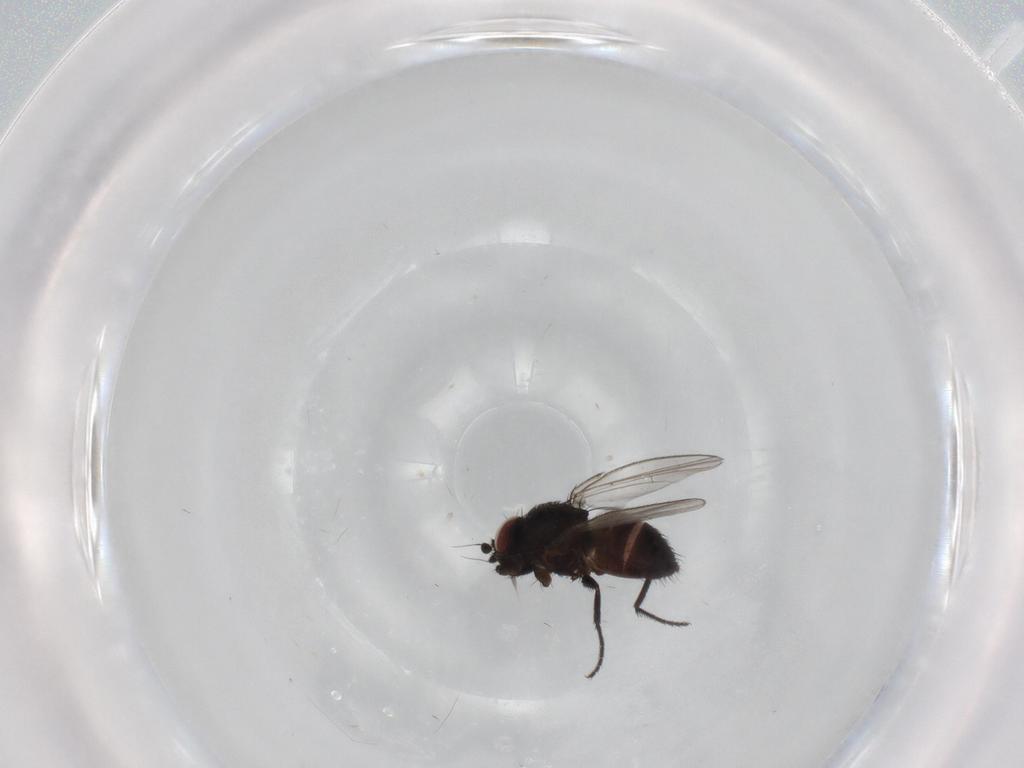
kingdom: Animalia
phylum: Arthropoda
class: Insecta
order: Diptera
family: Milichiidae
